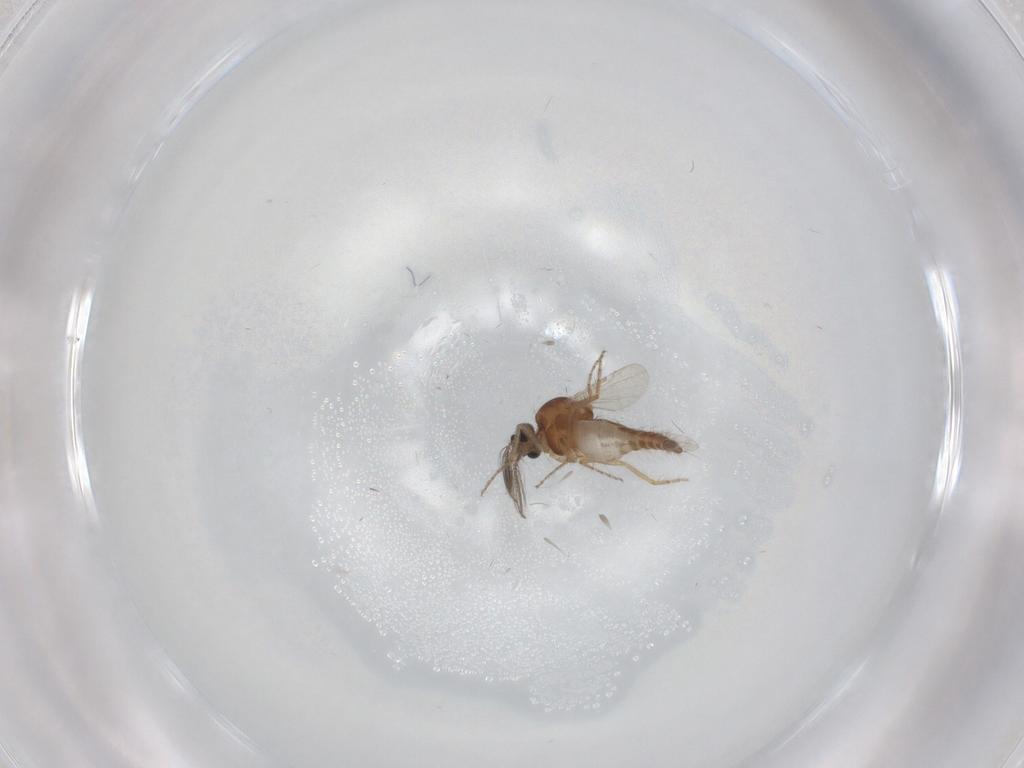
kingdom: Animalia
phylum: Arthropoda
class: Insecta
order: Diptera
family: Ceratopogonidae
